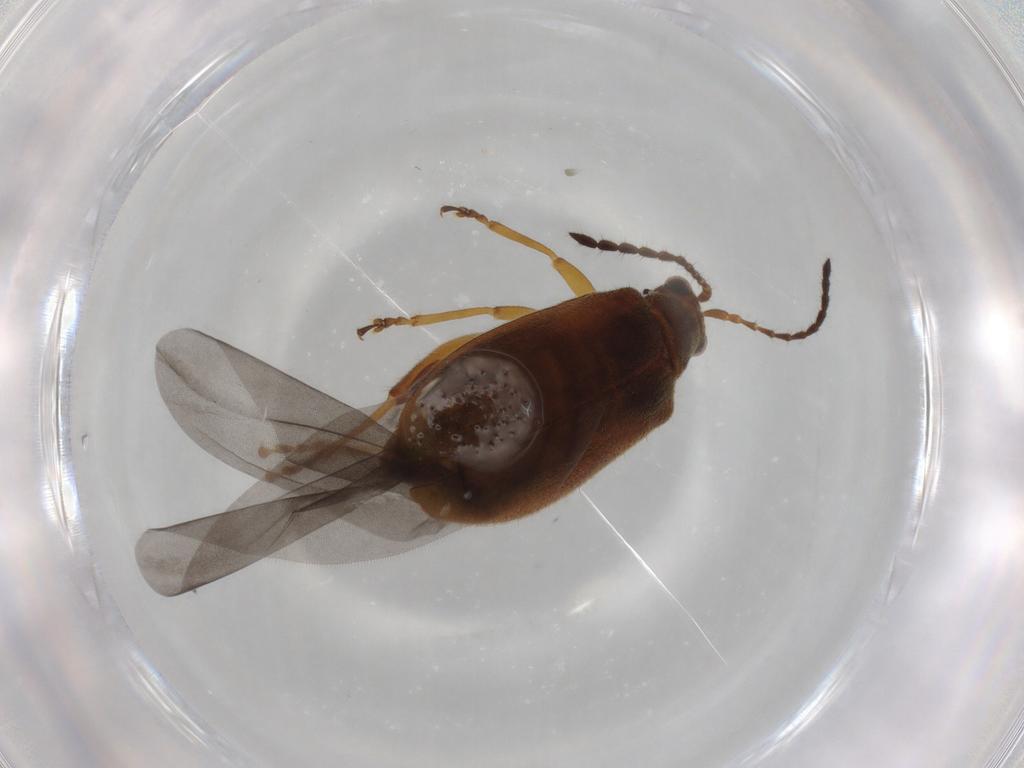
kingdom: Animalia
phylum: Arthropoda
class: Insecta
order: Coleoptera
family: Chrysomelidae
